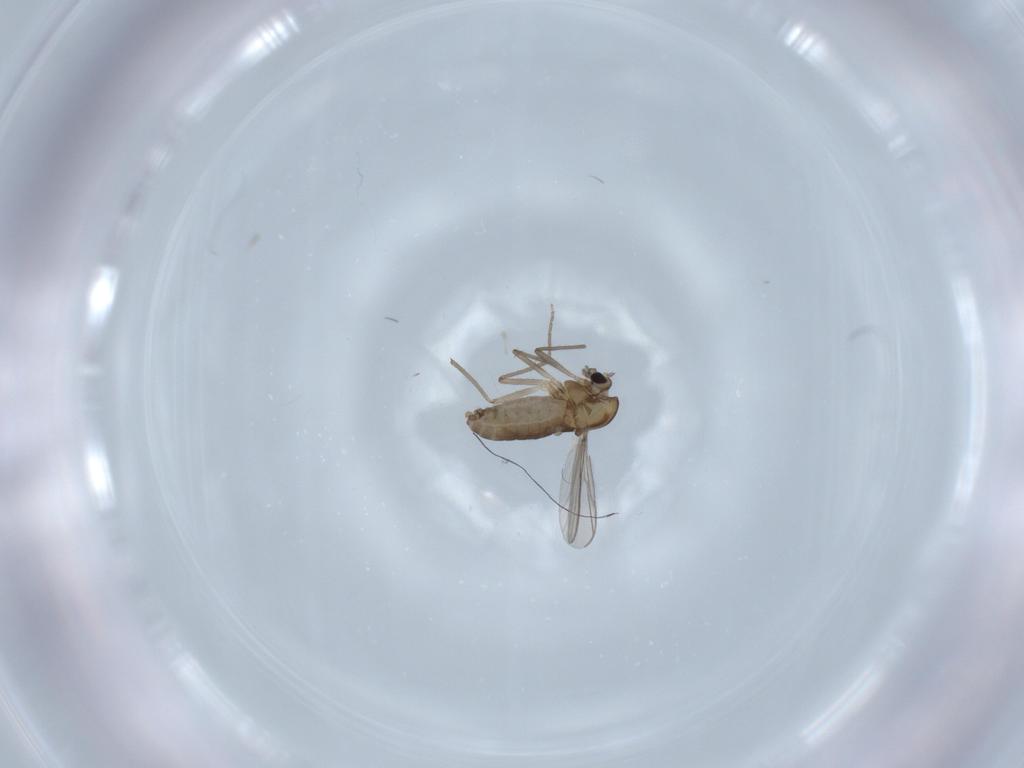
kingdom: Animalia
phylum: Arthropoda
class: Insecta
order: Diptera
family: Chironomidae
